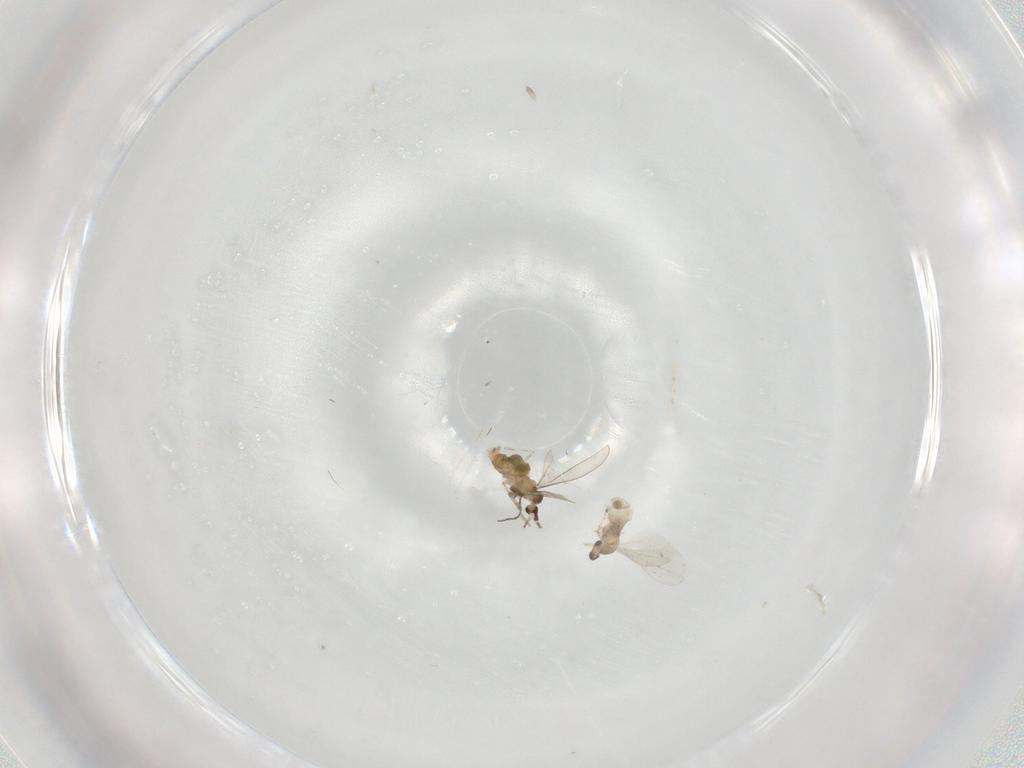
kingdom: Animalia
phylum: Arthropoda
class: Insecta
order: Diptera
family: Cecidomyiidae
